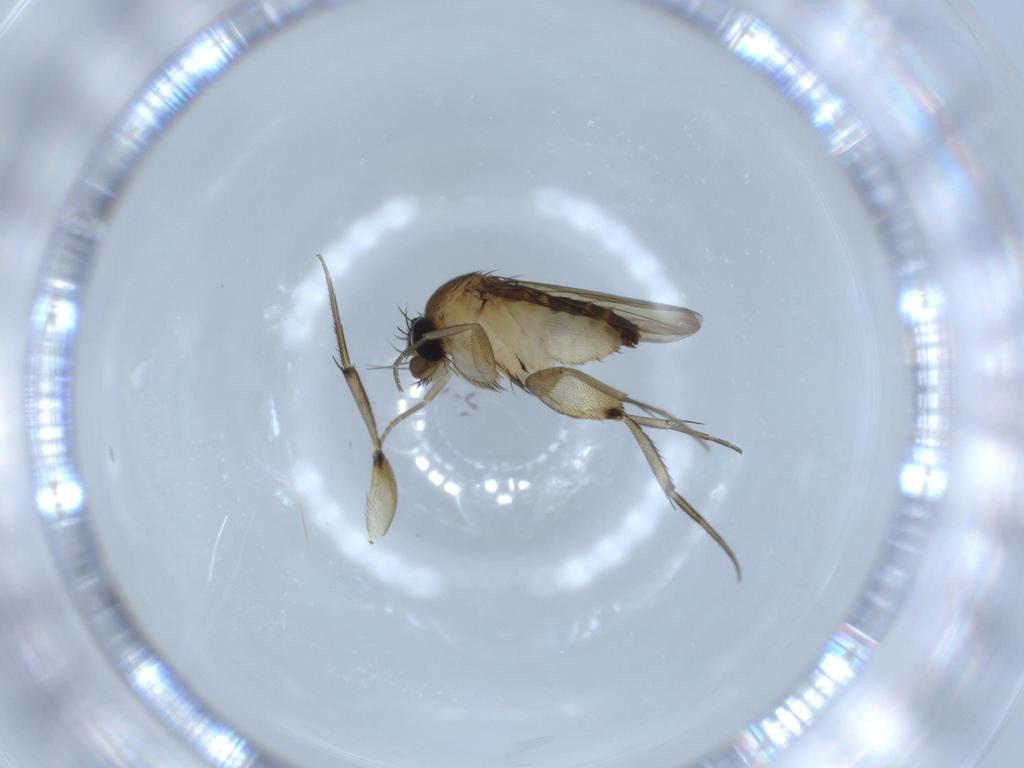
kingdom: Animalia
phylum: Arthropoda
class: Insecta
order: Diptera
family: Phoridae
